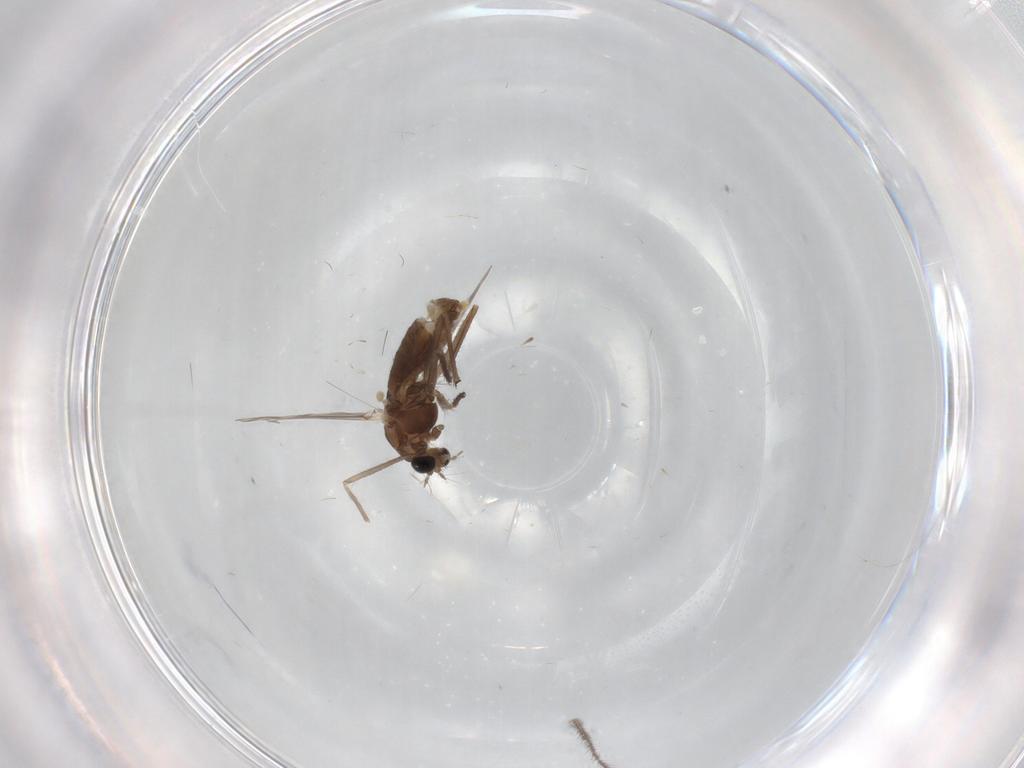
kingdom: Animalia
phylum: Arthropoda
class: Insecta
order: Diptera
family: Chironomidae
